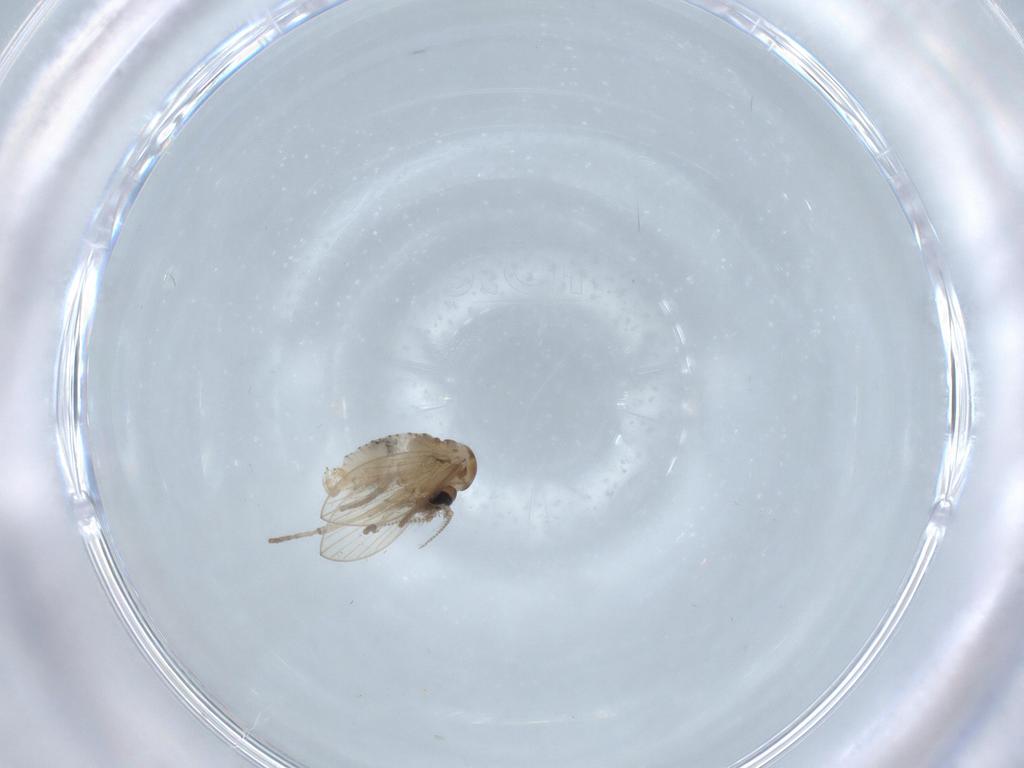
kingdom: Animalia
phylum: Arthropoda
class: Insecta
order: Diptera
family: Psychodidae
